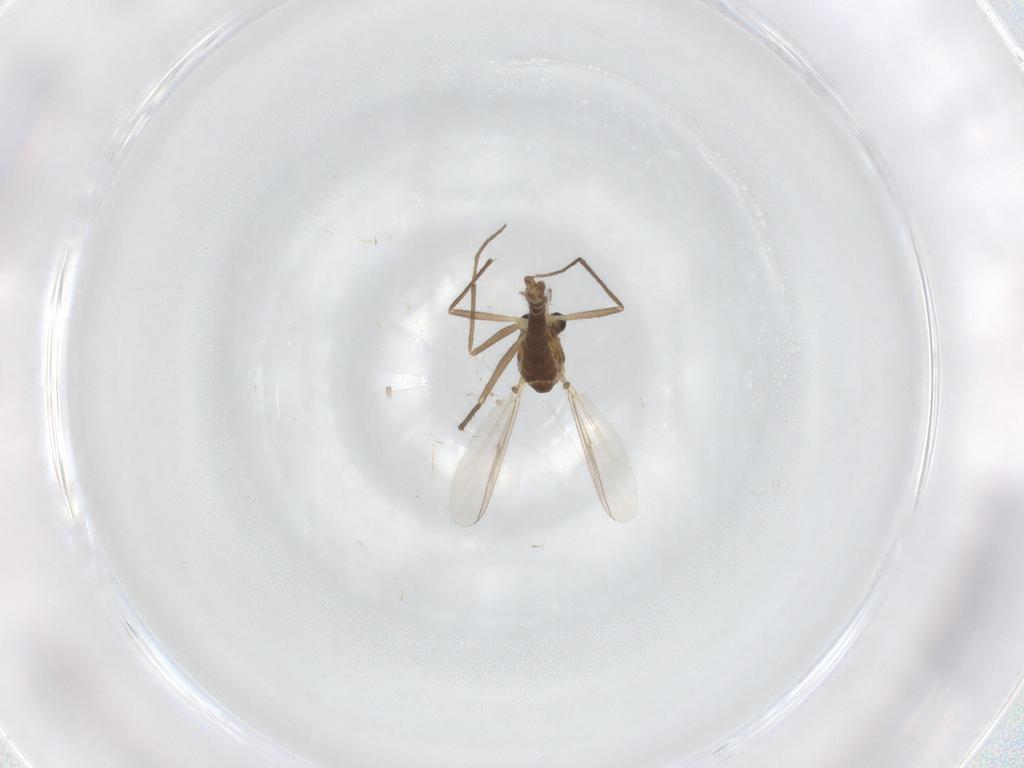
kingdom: Animalia
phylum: Arthropoda
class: Insecta
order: Diptera
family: Chironomidae
